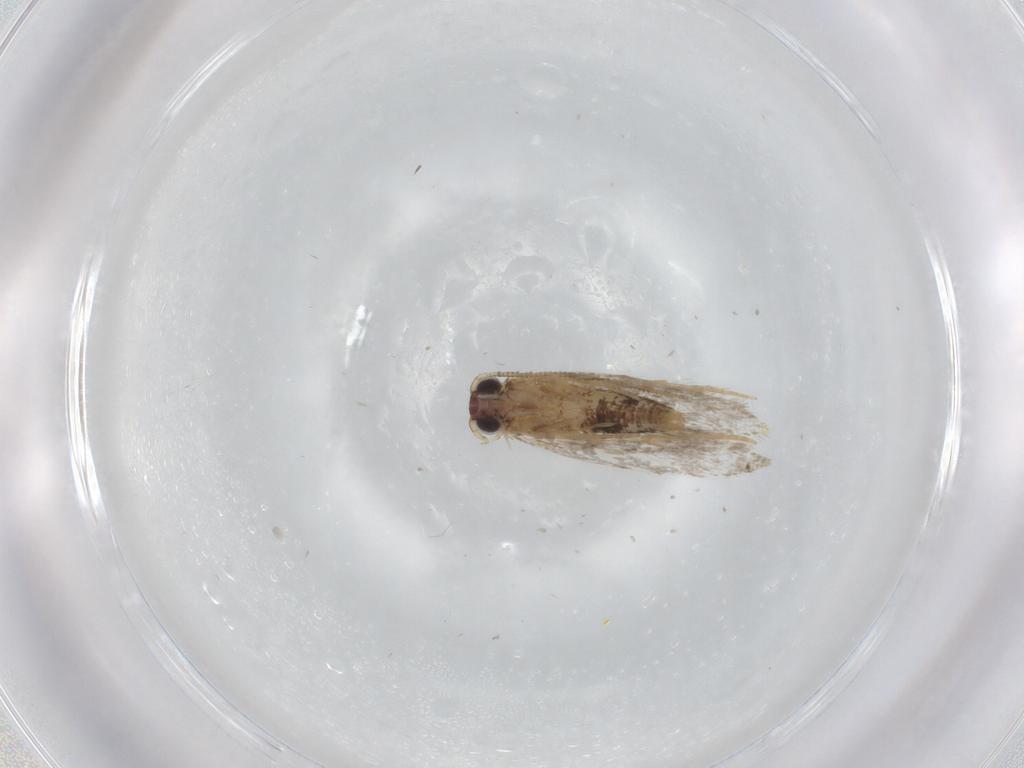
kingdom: Animalia
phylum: Arthropoda
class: Insecta
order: Lepidoptera
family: Tineidae
